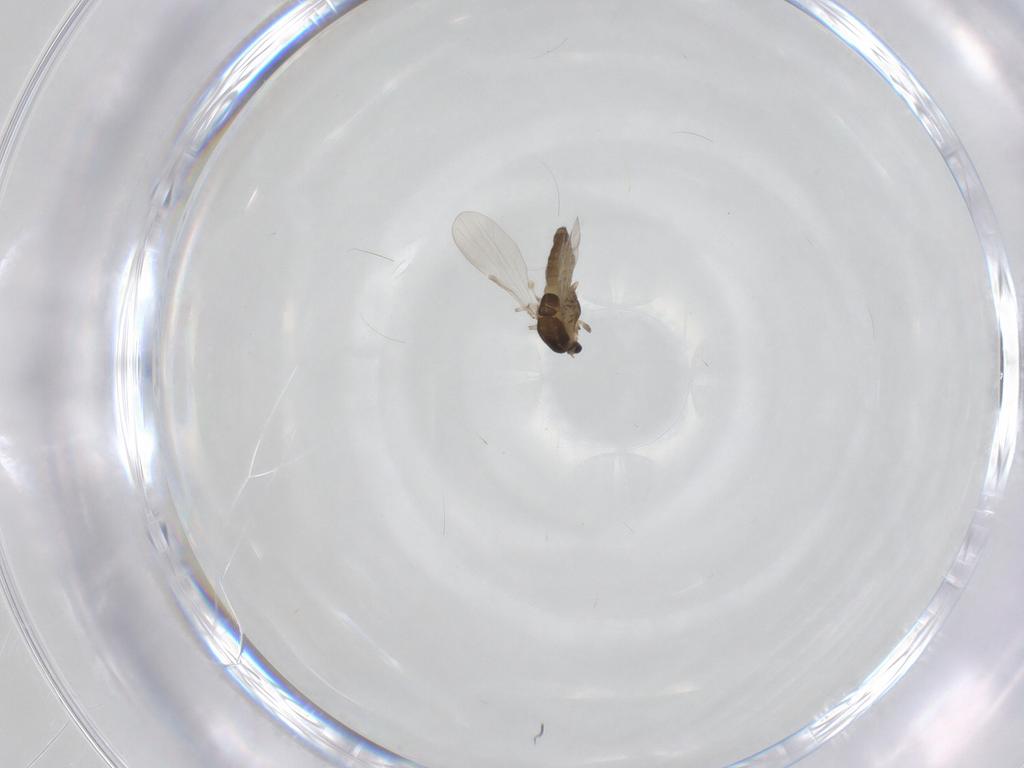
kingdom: Animalia
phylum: Arthropoda
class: Insecta
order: Diptera
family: Chironomidae
